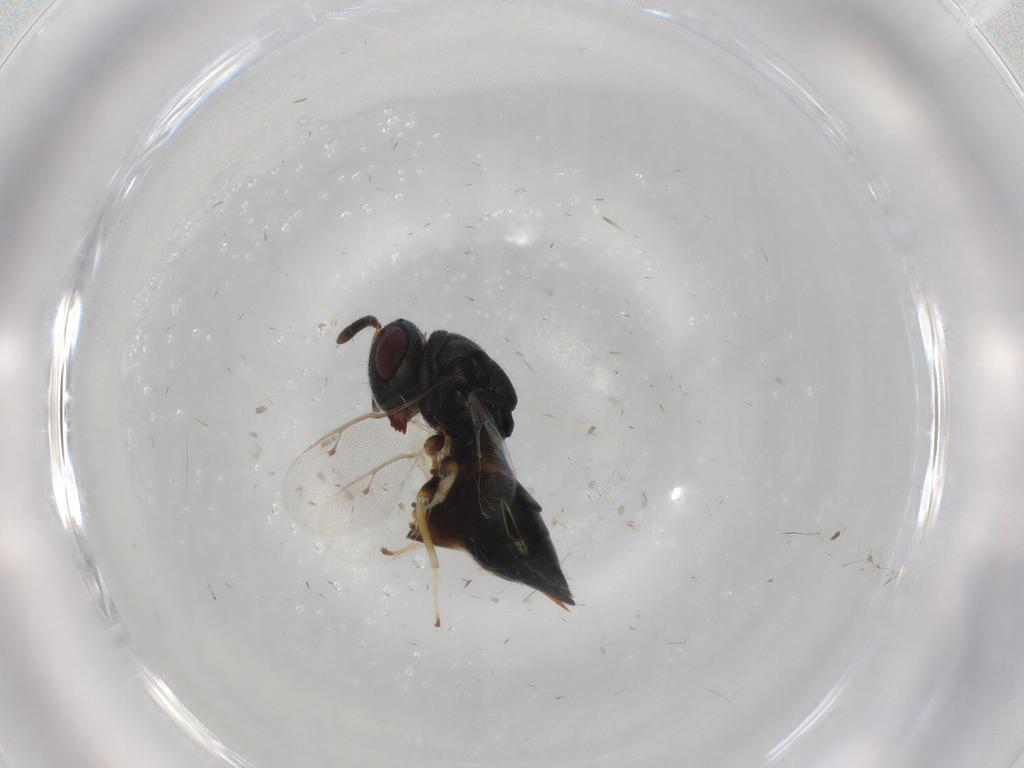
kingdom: Animalia
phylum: Arthropoda
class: Insecta
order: Hymenoptera
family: Pteromalidae
